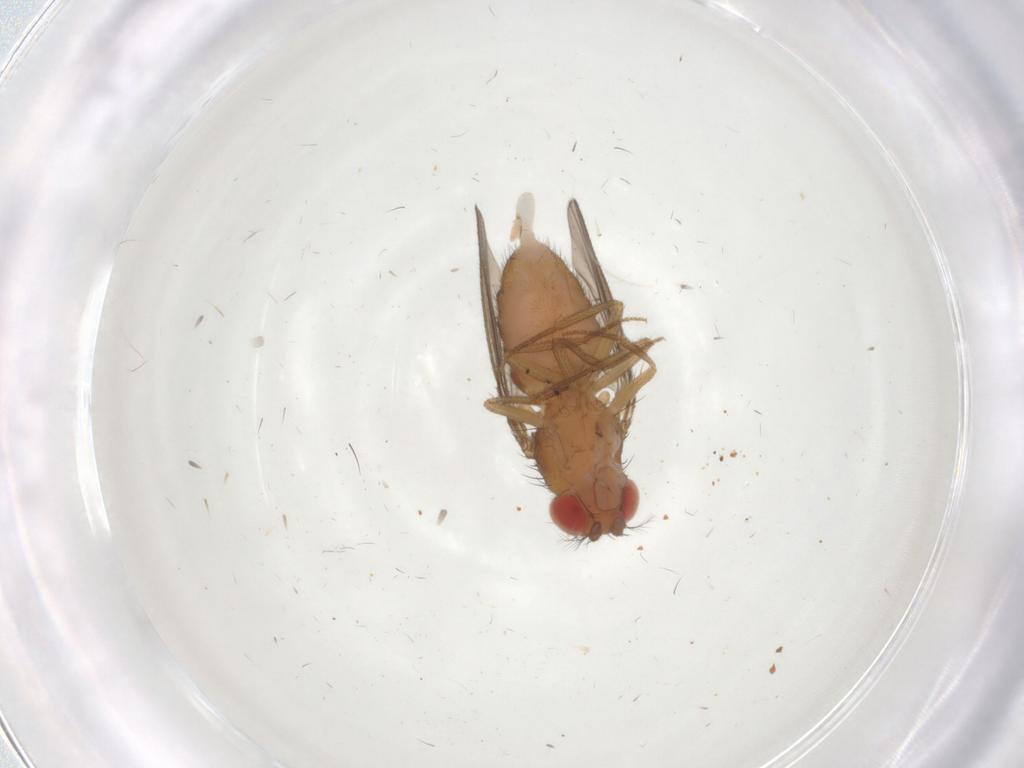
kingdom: Animalia
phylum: Arthropoda
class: Insecta
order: Diptera
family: Drosophilidae
